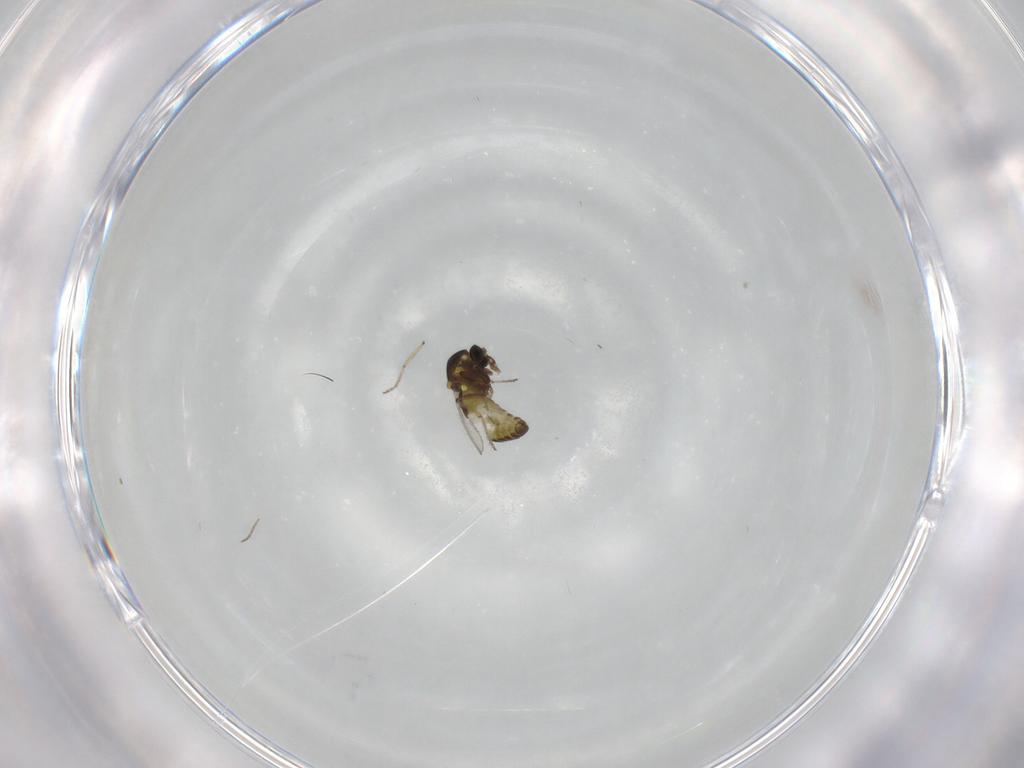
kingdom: Animalia
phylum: Arthropoda
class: Insecta
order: Diptera
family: Ceratopogonidae
